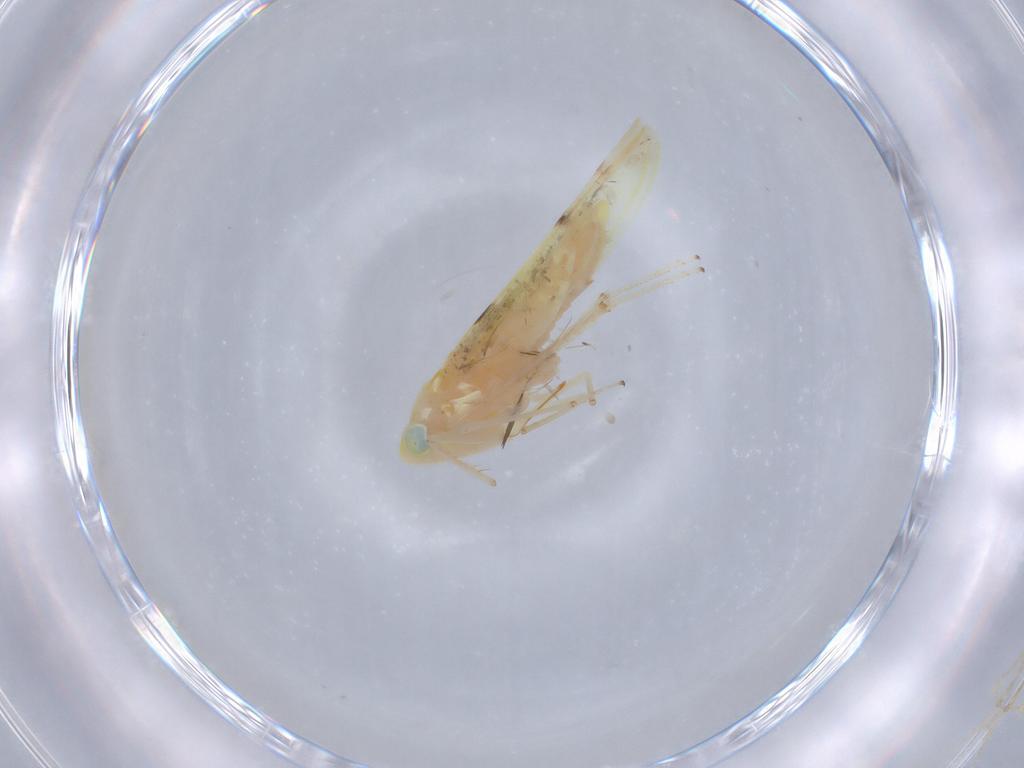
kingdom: Animalia
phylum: Arthropoda
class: Insecta
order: Hemiptera
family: Cicadellidae
